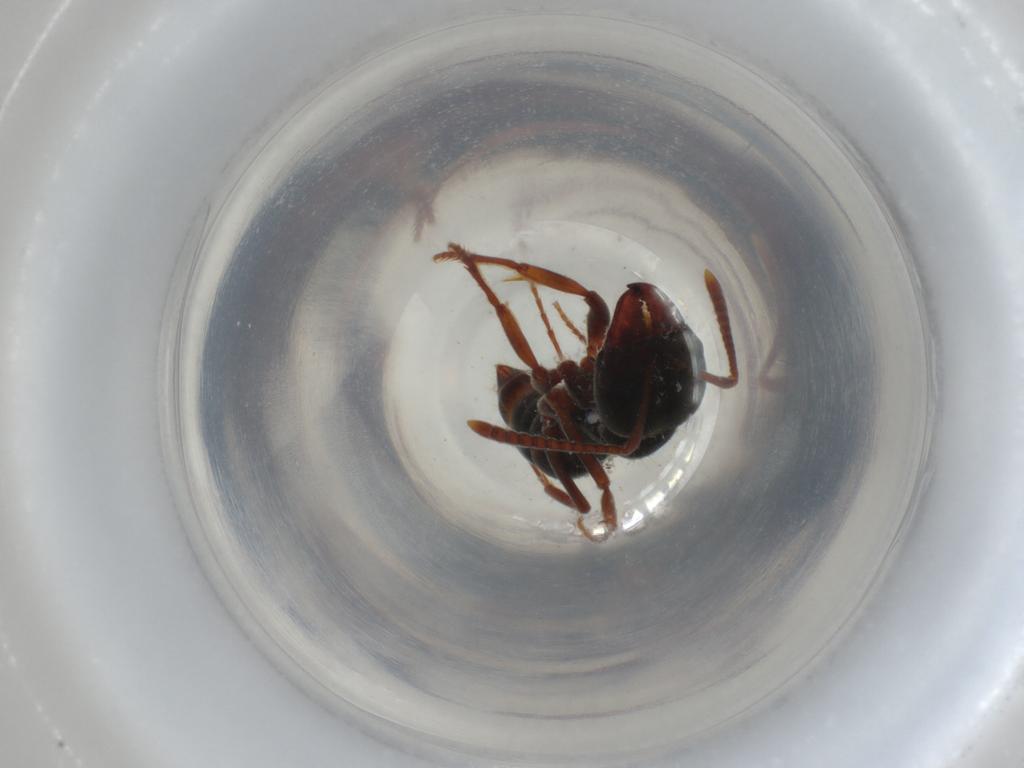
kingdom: Animalia
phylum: Arthropoda
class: Insecta
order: Hymenoptera
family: Formicidae
